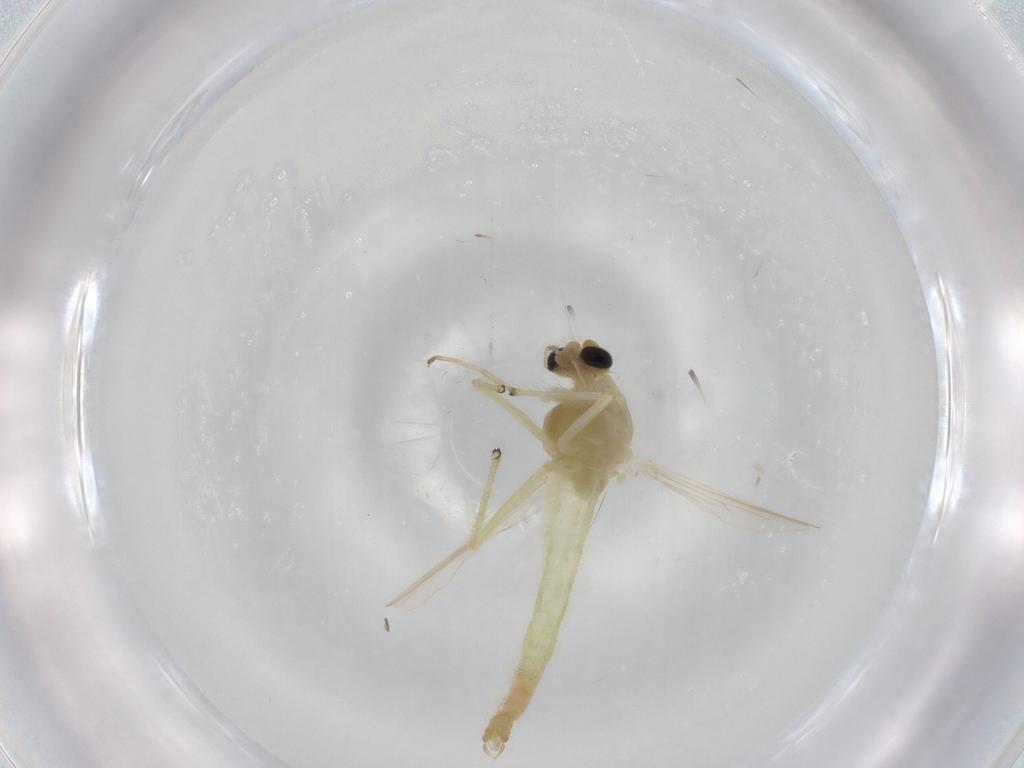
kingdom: Animalia
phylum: Arthropoda
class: Insecta
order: Diptera
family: Chironomidae
